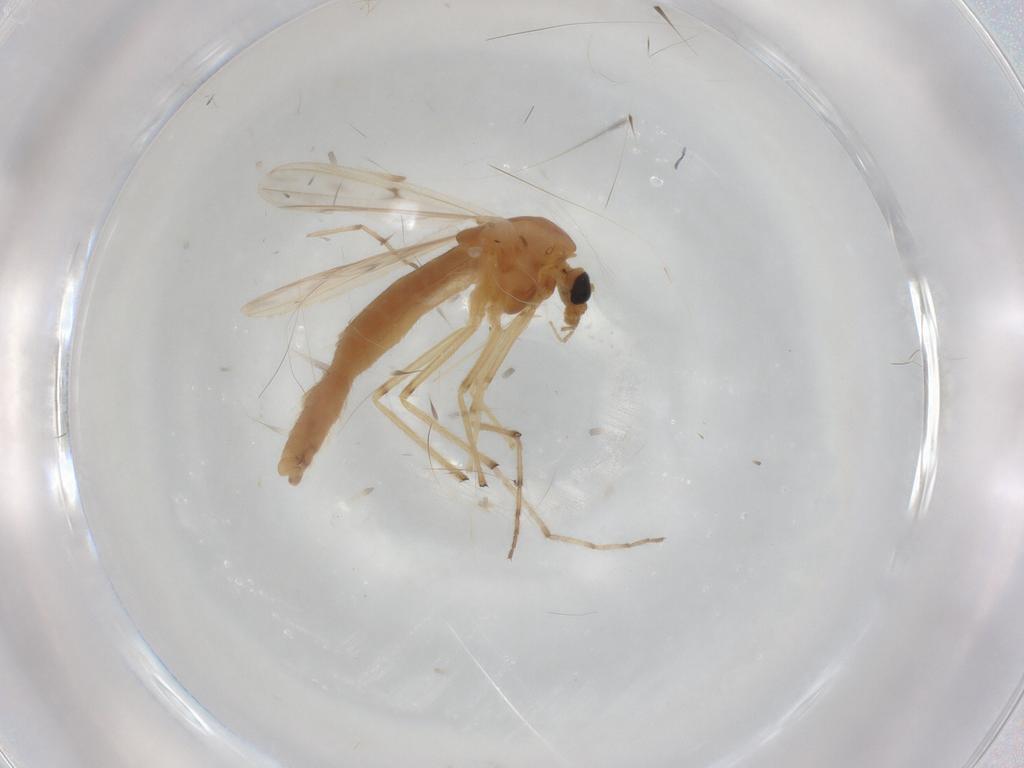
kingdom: Animalia
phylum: Arthropoda
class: Insecta
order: Diptera
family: Chironomidae
